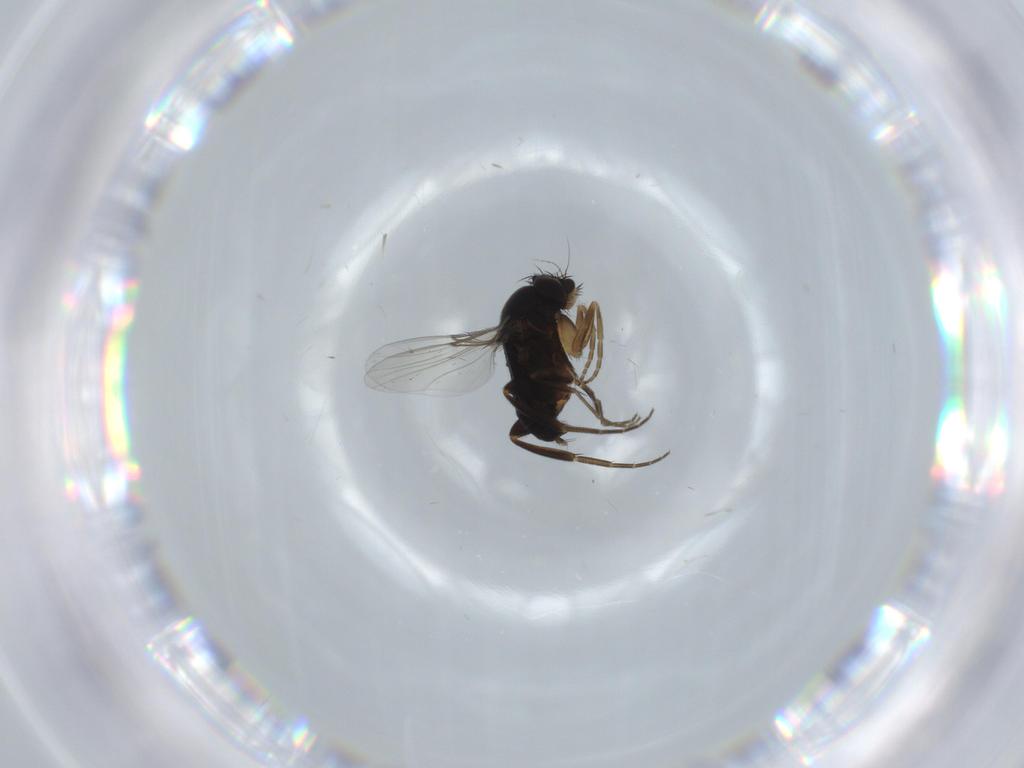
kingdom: Animalia
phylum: Arthropoda
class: Insecta
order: Diptera
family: Phoridae
